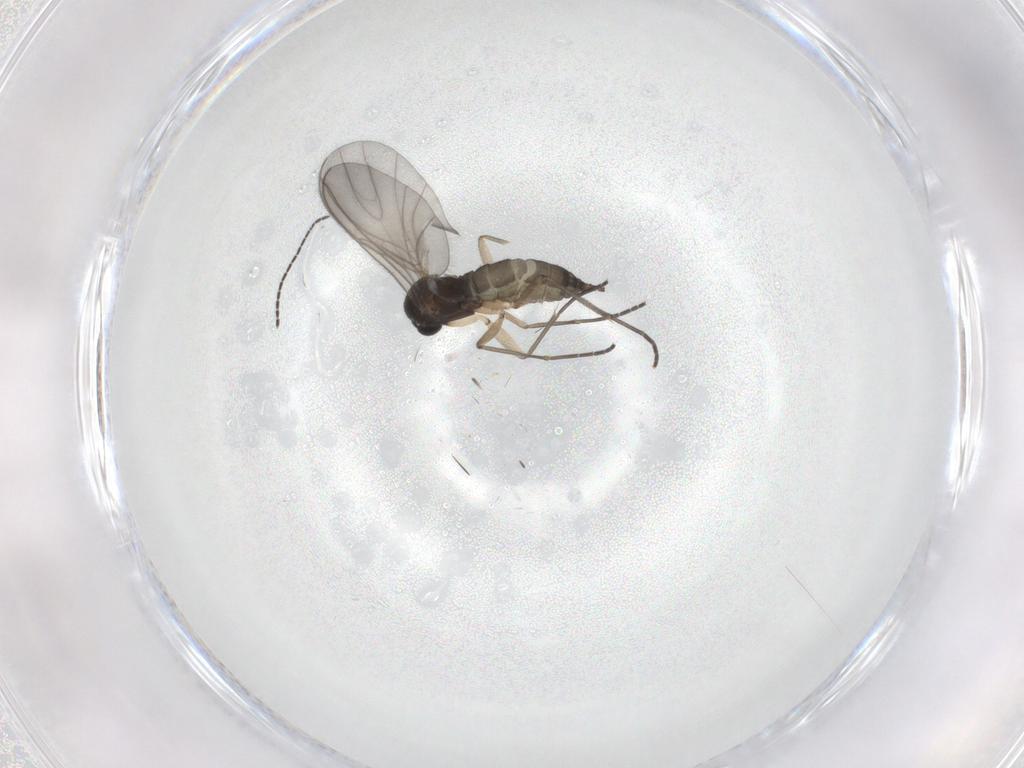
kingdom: Animalia
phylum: Arthropoda
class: Insecta
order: Diptera
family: Sciaridae
